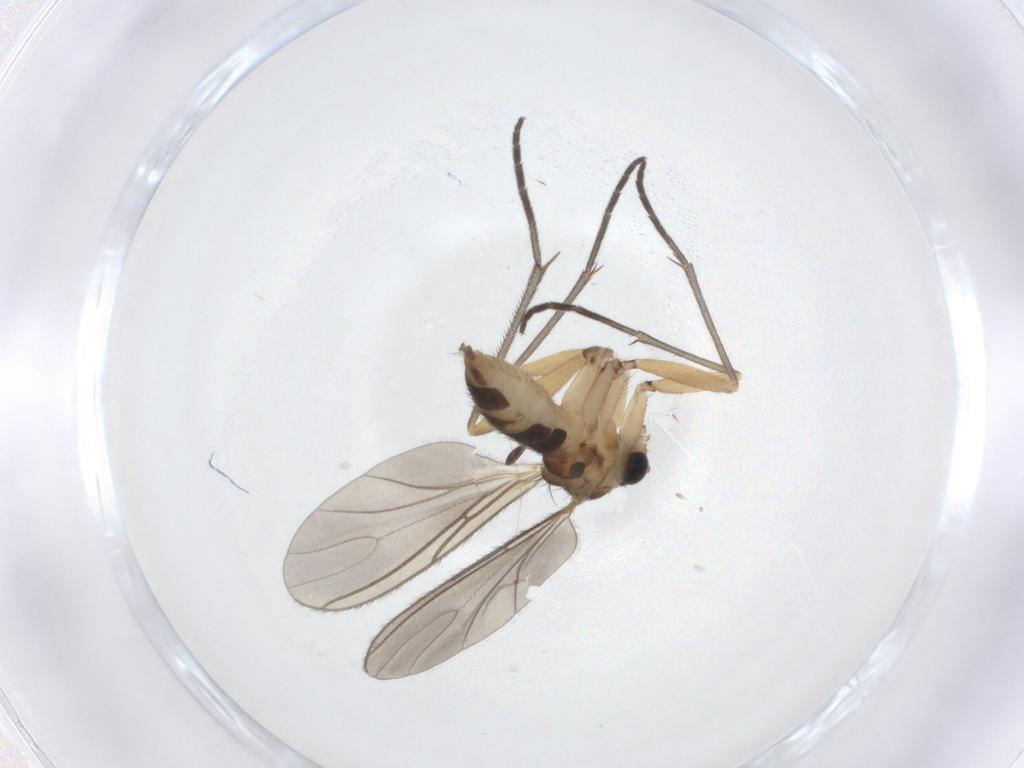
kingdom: Animalia
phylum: Arthropoda
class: Insecta
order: Diptera
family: Sciaridae
